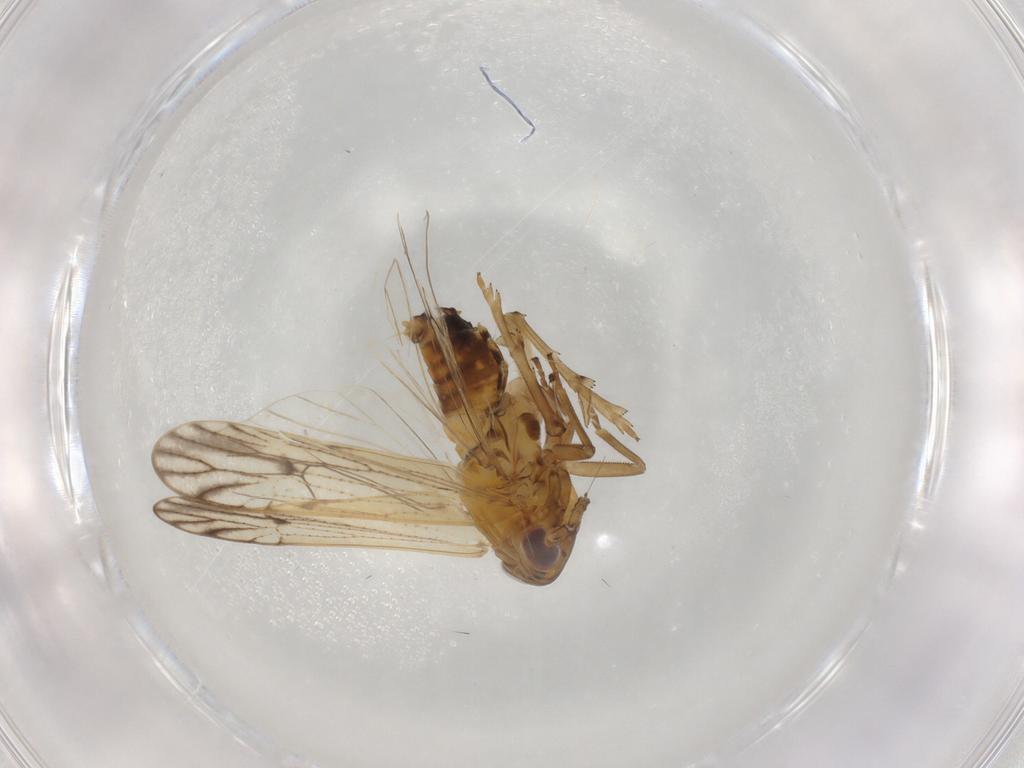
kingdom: Animalia
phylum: Arthropoda
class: Insecta
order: Hemiptera
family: Delphacidae
